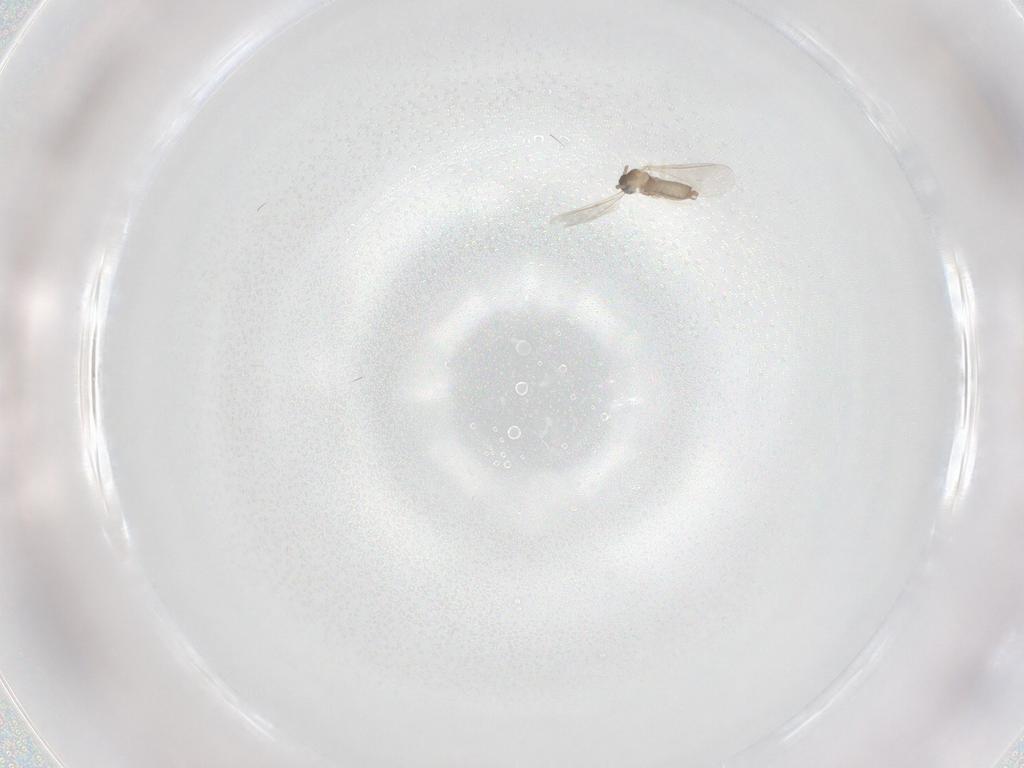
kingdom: Animalia
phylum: Arthropoda
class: Insecta
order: Diptera
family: Cecidomyiidae
